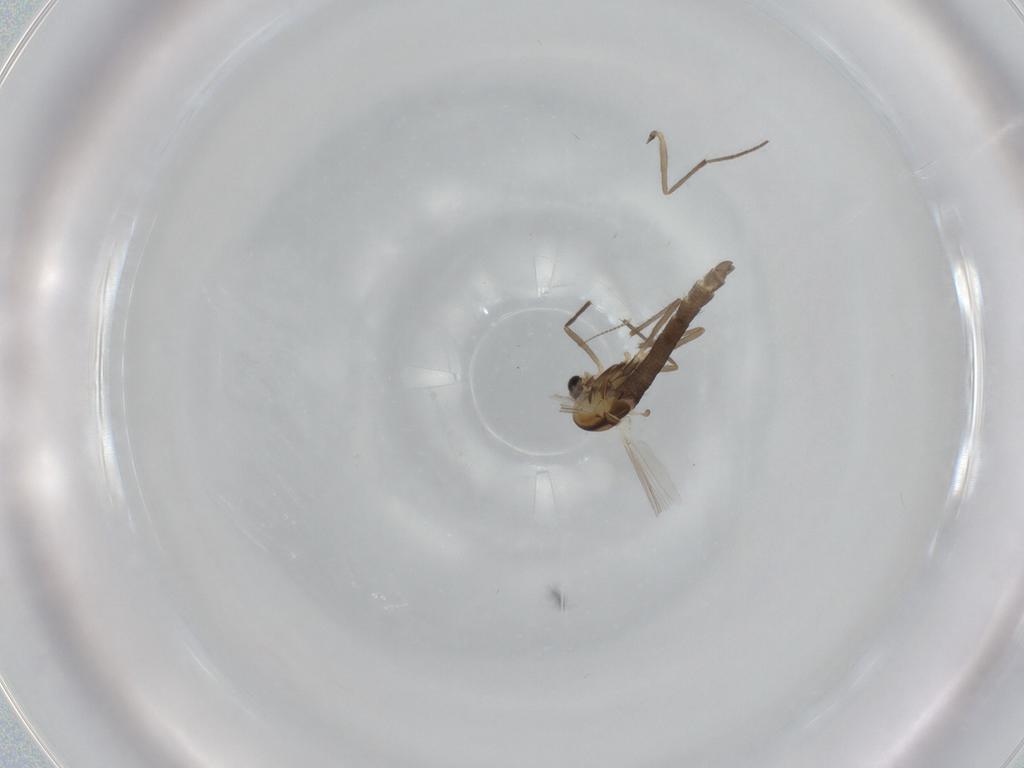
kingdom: Animalia
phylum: Arthropoda
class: Insecta
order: Diptera
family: Chironomidae
